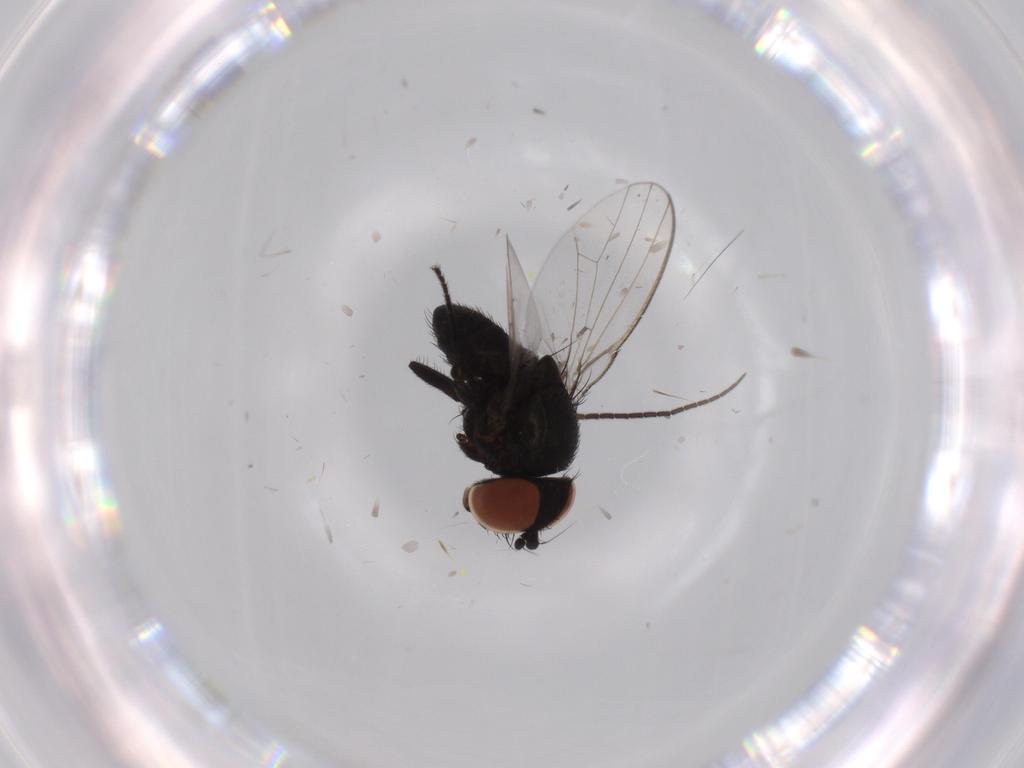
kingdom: Animalia
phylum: Arthropoda
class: Insecta
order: Diptera
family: Milichiidae
